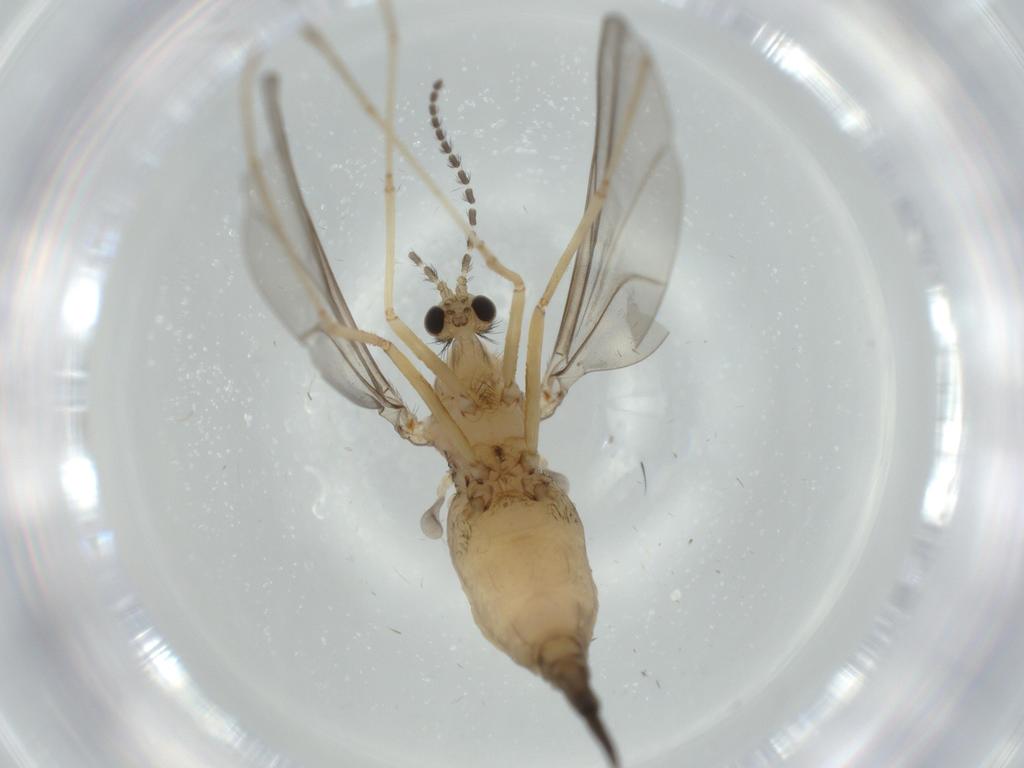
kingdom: Animalia
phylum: Arthropoda
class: Insecta
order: Diptera
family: Cecidomyiidae
